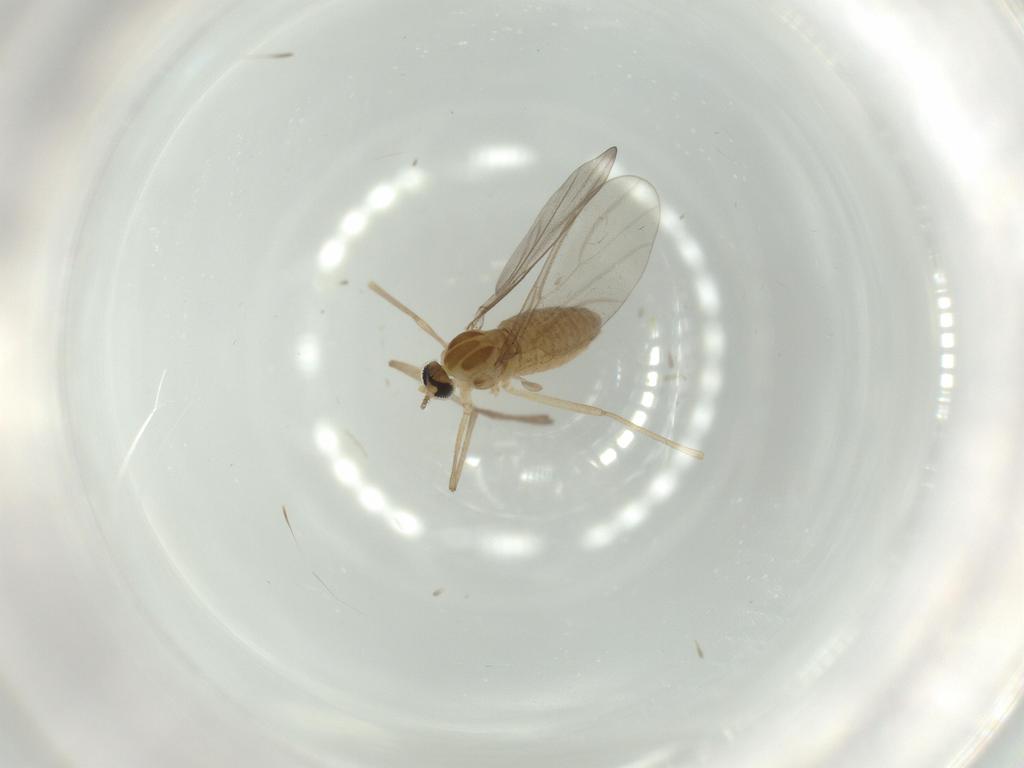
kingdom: Animalia
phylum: Arthropoda
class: Insecta
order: Diptera
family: Cecidomyiidae
